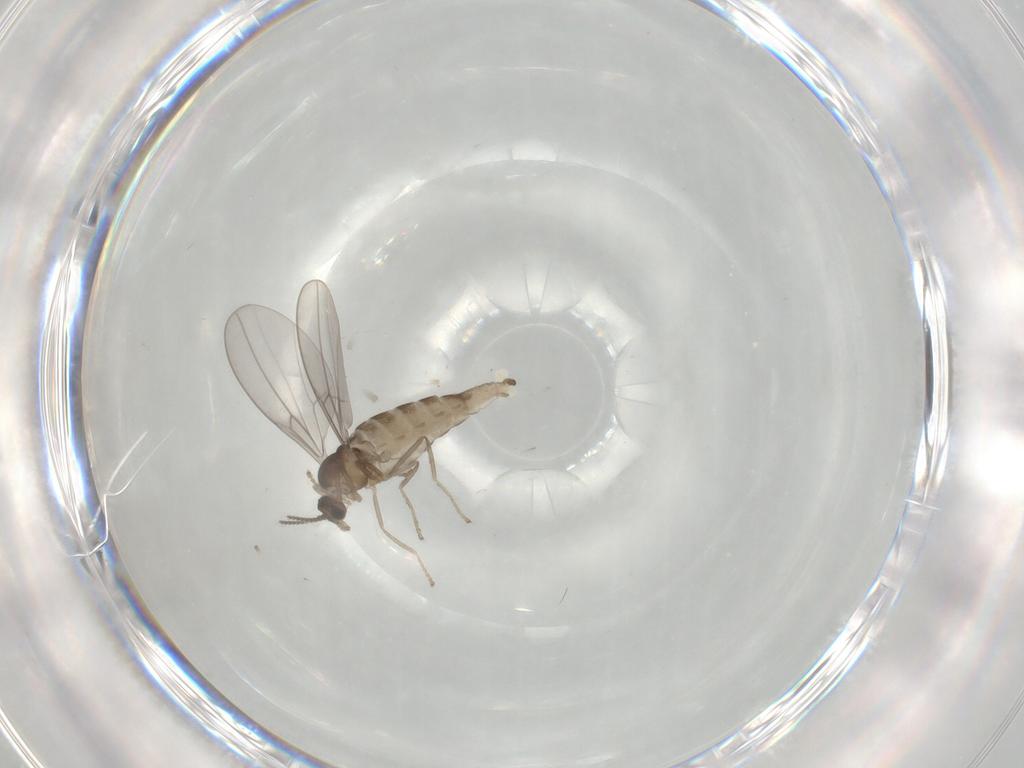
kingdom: Animalia
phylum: Arthropoda
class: Insecta
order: Diptera
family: Cecidomyiidae
